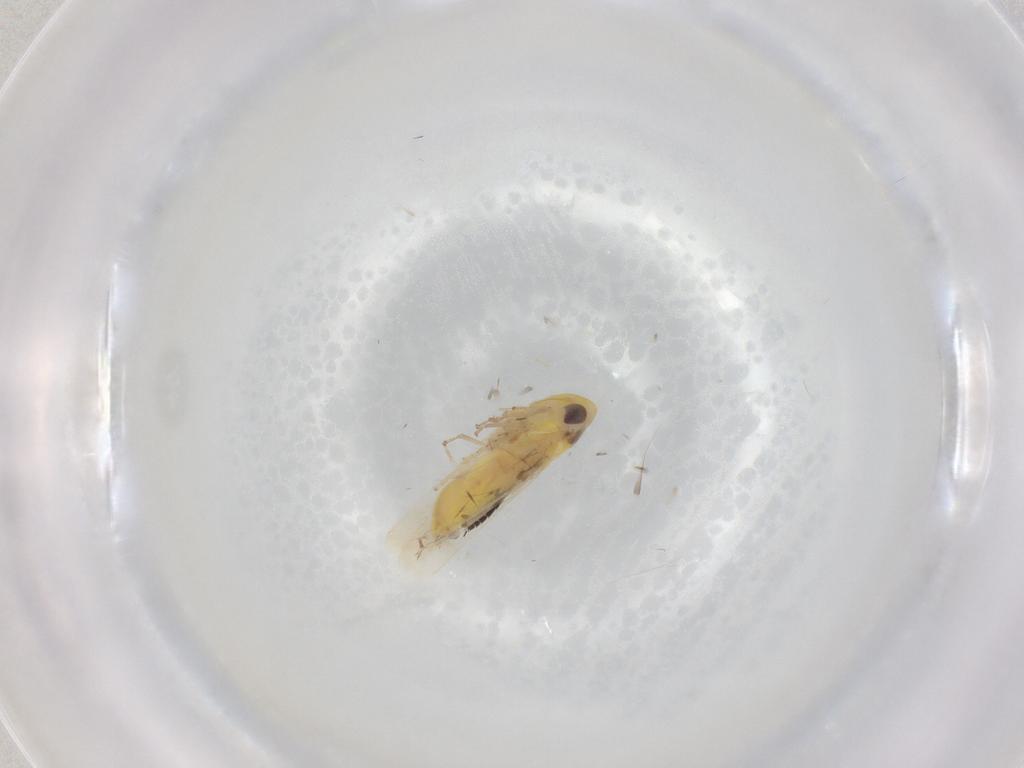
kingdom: Animalia
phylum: Arthropoda
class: Insecta
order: Hemiptera
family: Cicadellidae
